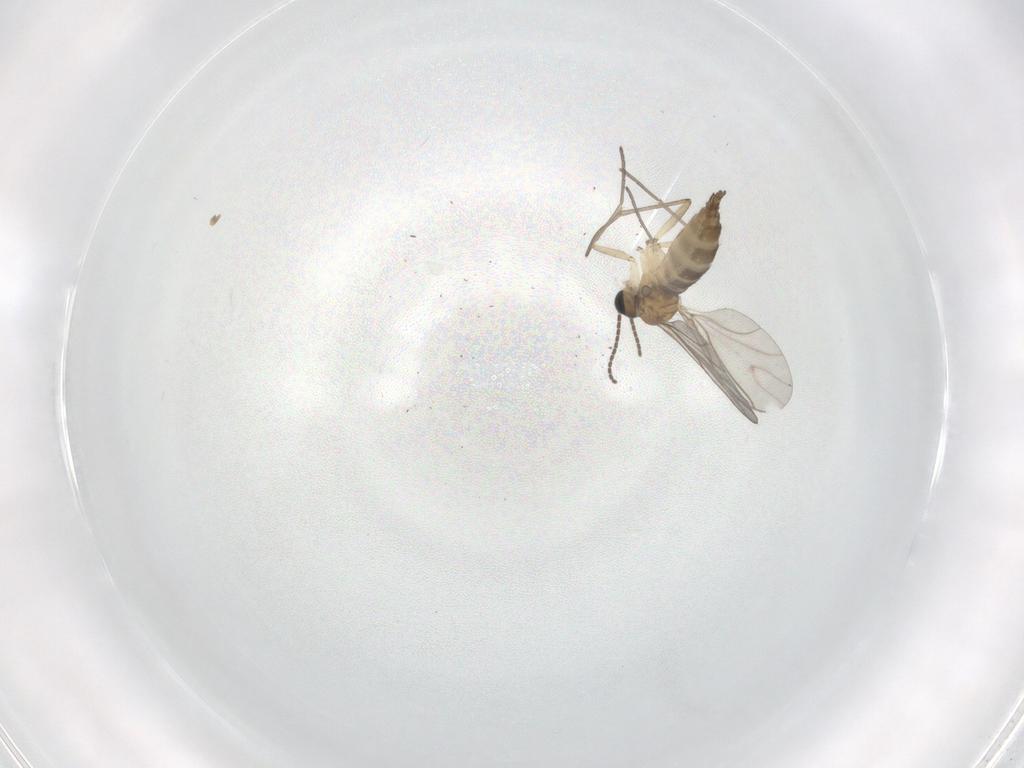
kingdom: Animalia
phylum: Arthropoda
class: Insecta
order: Diptera
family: Sciaridae
